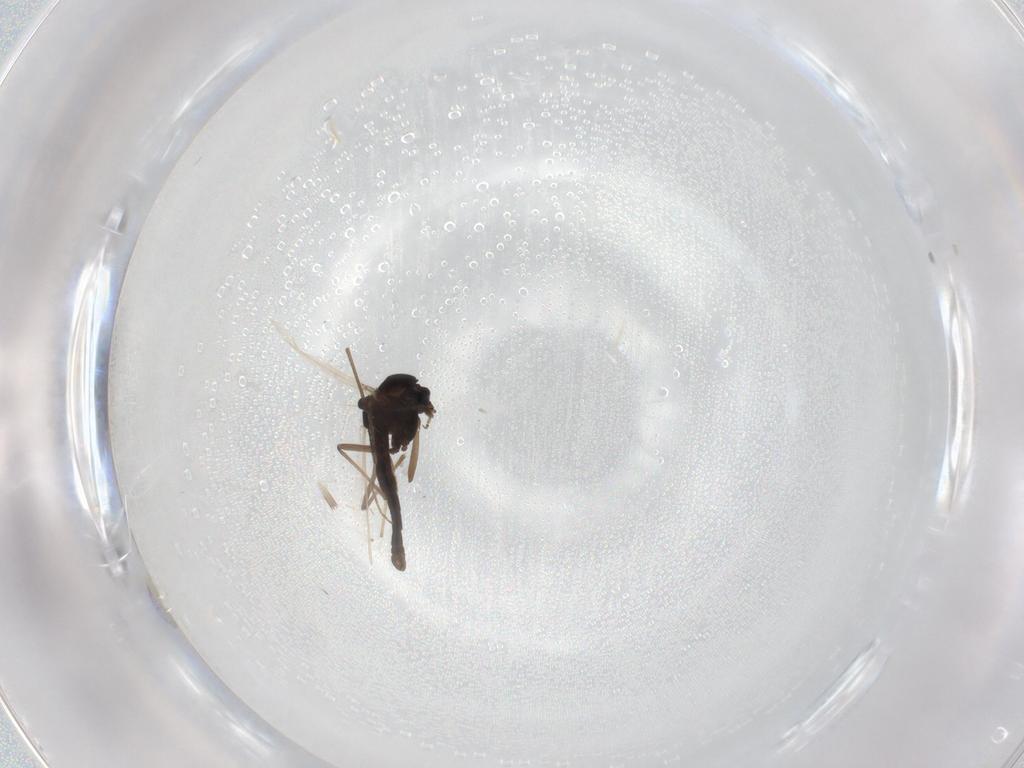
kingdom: Animalia
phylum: Arthropoda
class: Insecta
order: Diptera
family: Chironomidae
